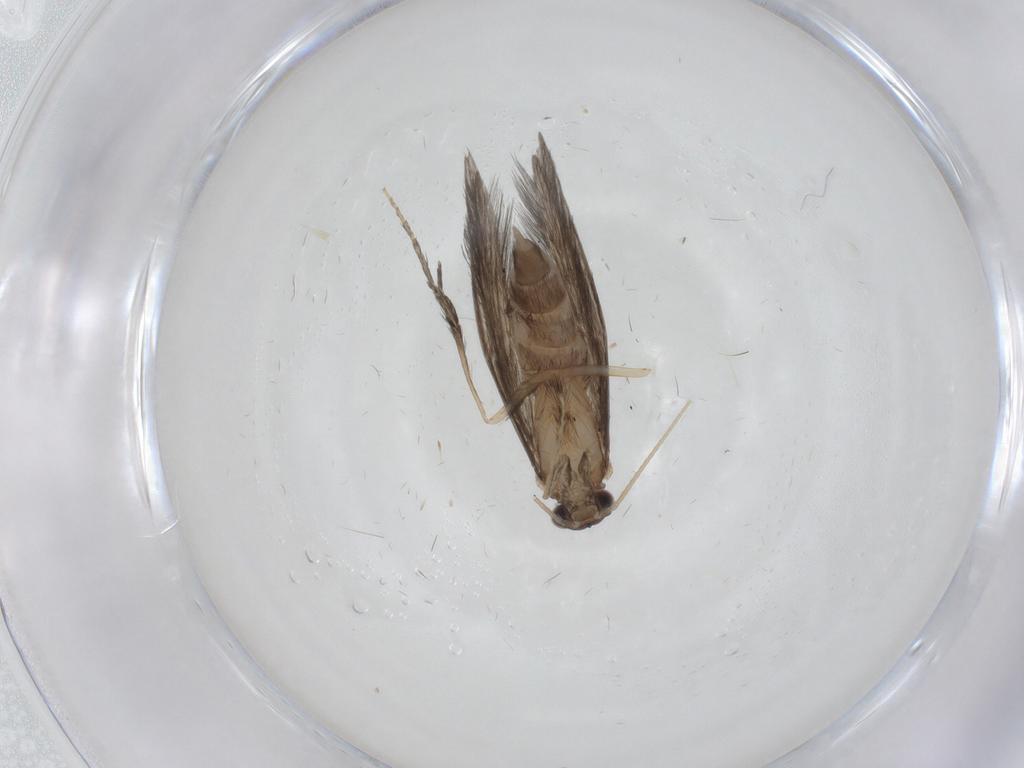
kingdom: Animalia
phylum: Arthropoda
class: Insecta
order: Trichoptera
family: Hydroptilidae
